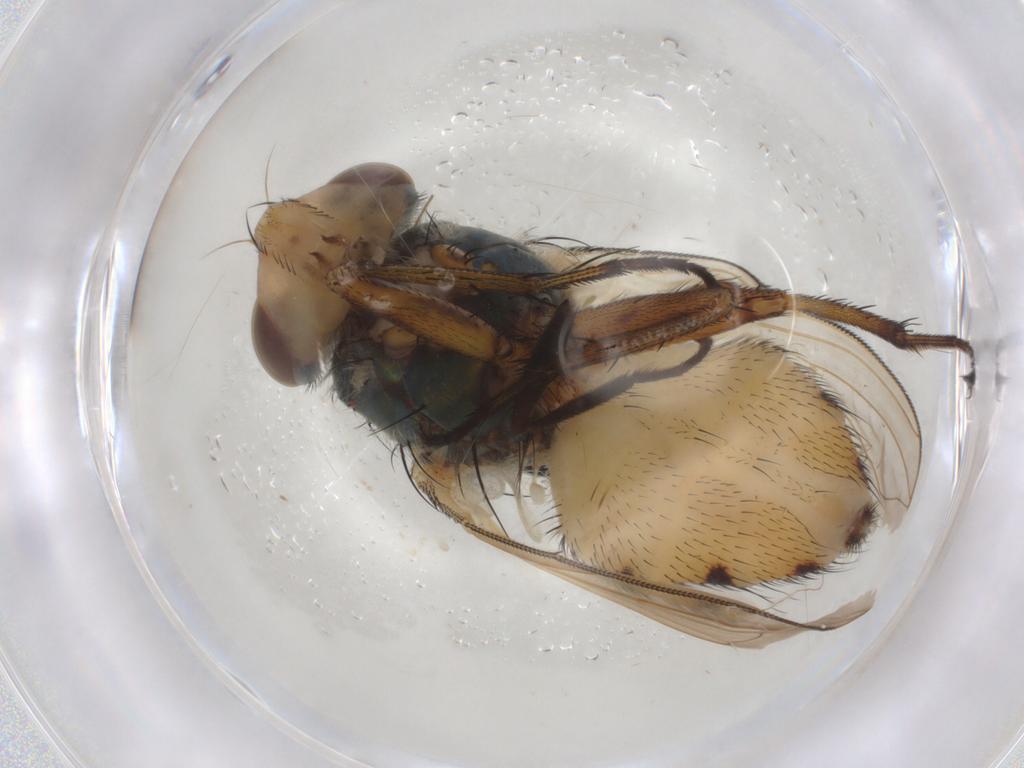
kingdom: Animalia
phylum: Arthropoda
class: Insecta
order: Diptera
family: Calliphoridae
